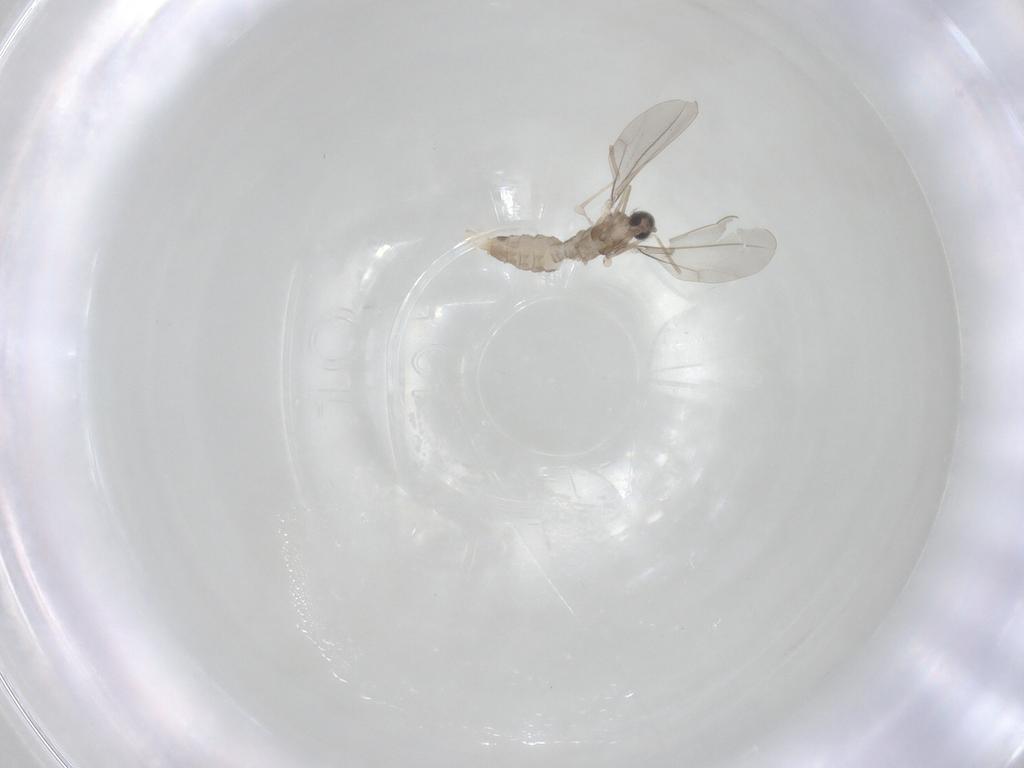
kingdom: Animalia
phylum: Arthropoda
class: Insecta
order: Diptera
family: Cecidomyiidae
